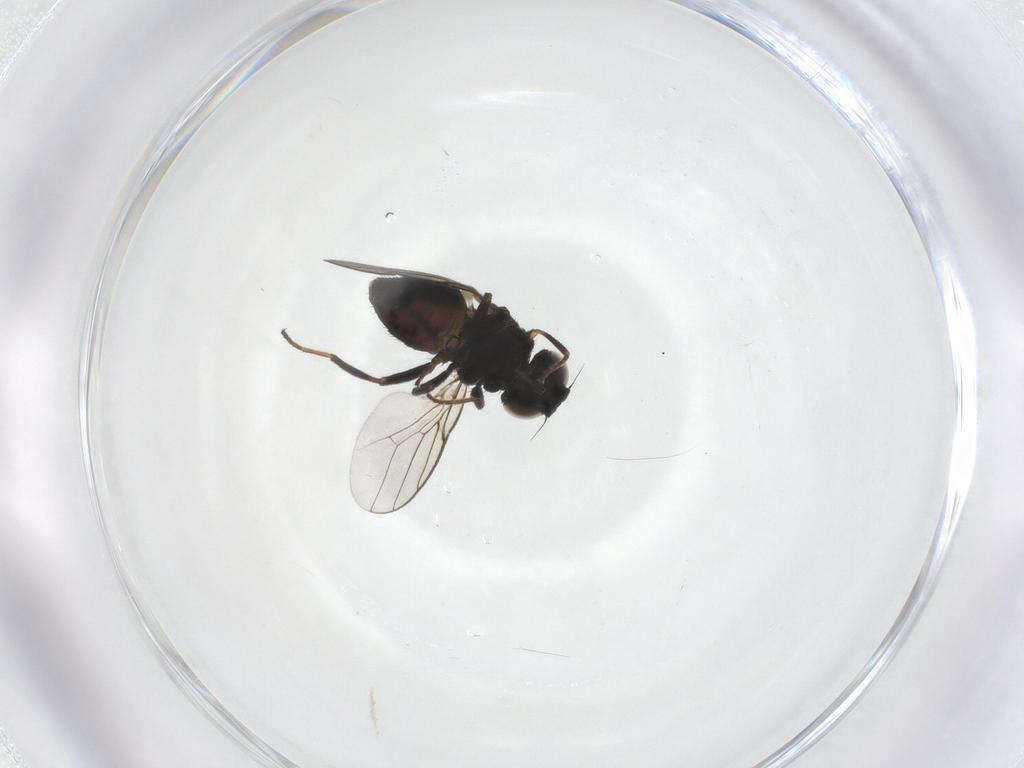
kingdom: Animalia
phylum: Arthropoda
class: Insecta
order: Diptera
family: Chloropidae
